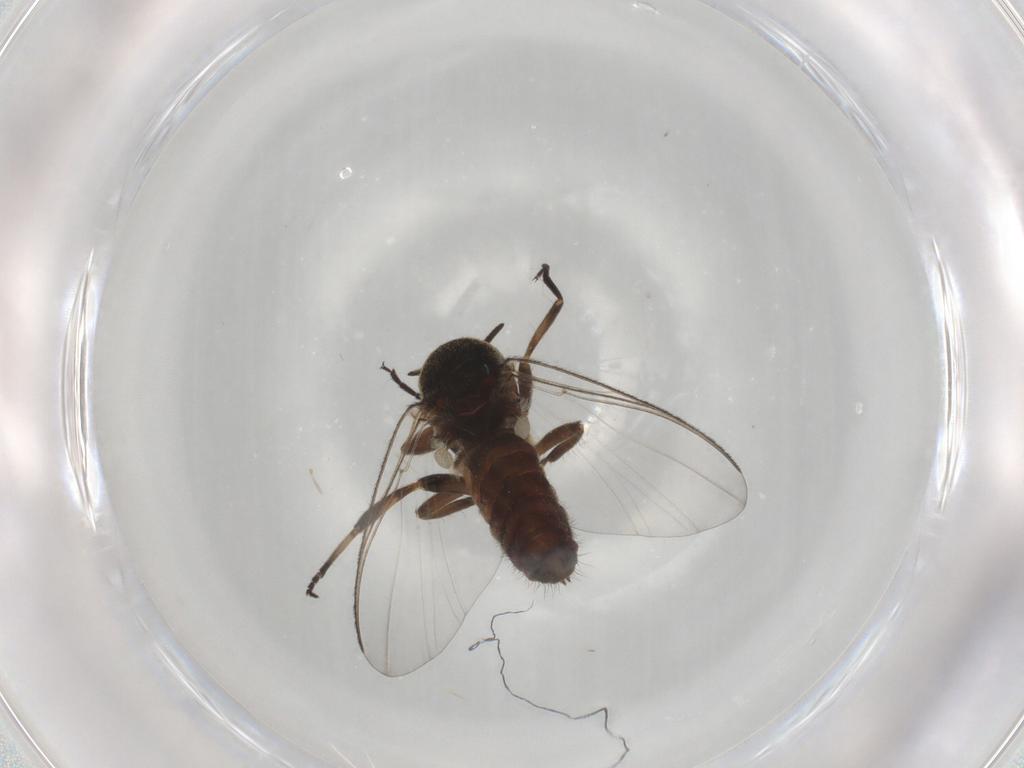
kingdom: Animalia
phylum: Arthropoda
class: Insecta
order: Diptera
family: Simuliidae
